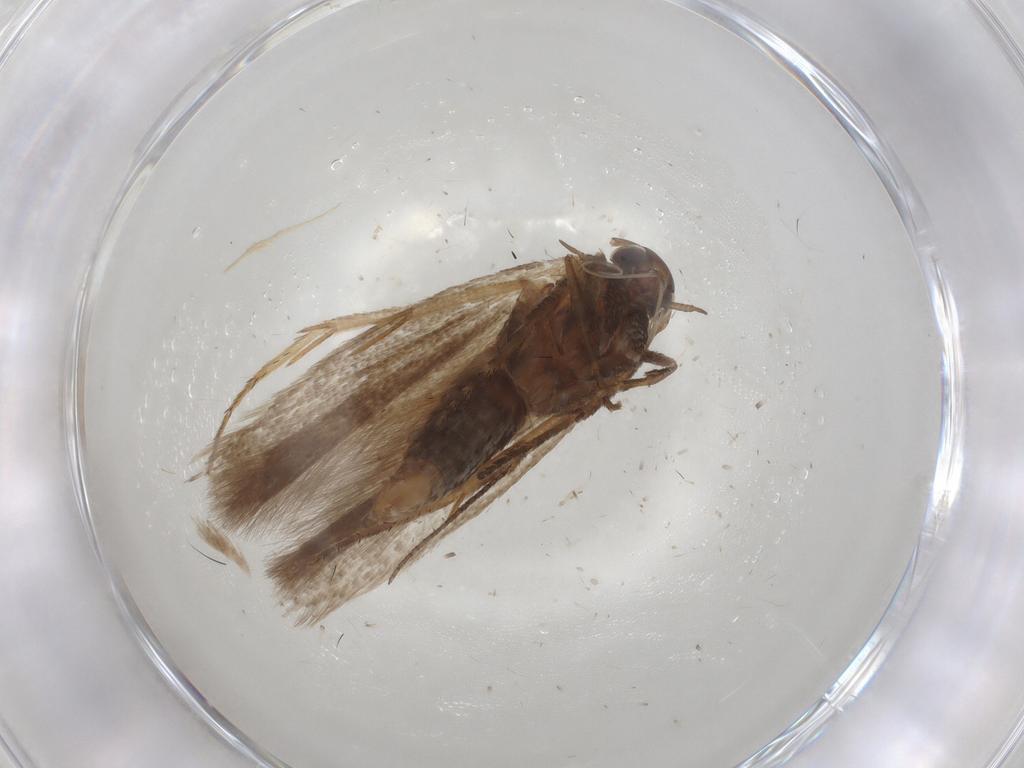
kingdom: Animalia
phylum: Arthropoda
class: Insecta
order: Lepidoptera
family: Gelechiidae
